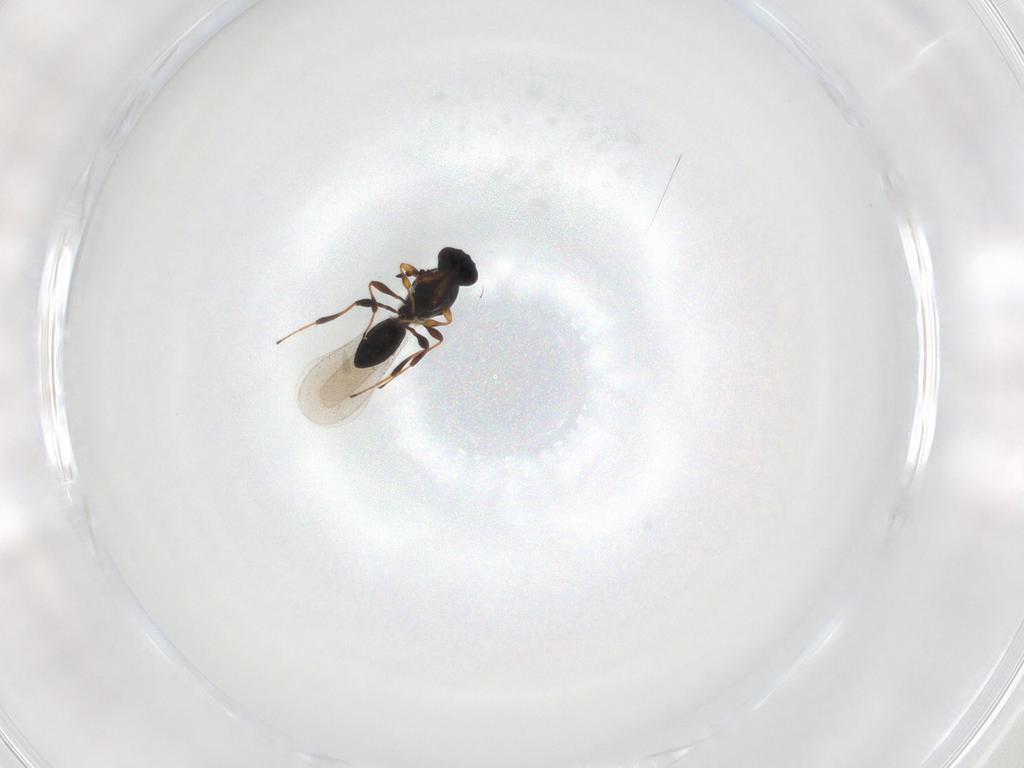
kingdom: Animalia
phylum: Arthropoda
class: Insecta
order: Hymenoptera
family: Platygastridae
